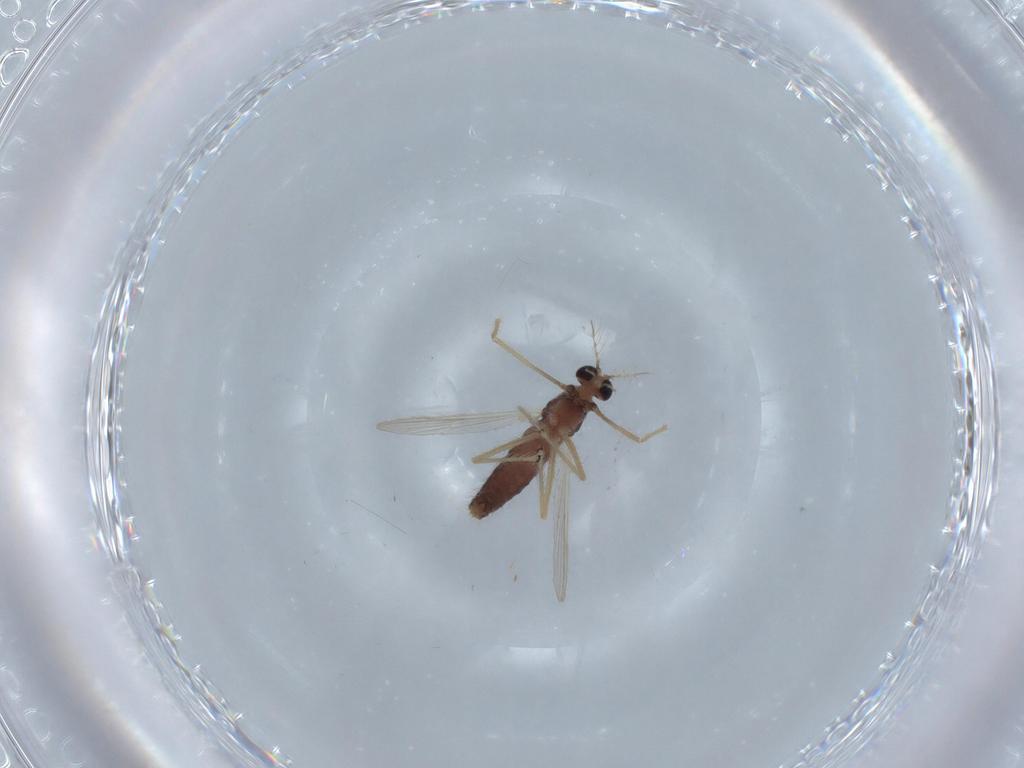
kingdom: Animalia
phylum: Arthropoda
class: Insecta
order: Diptera
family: Chironomidae
